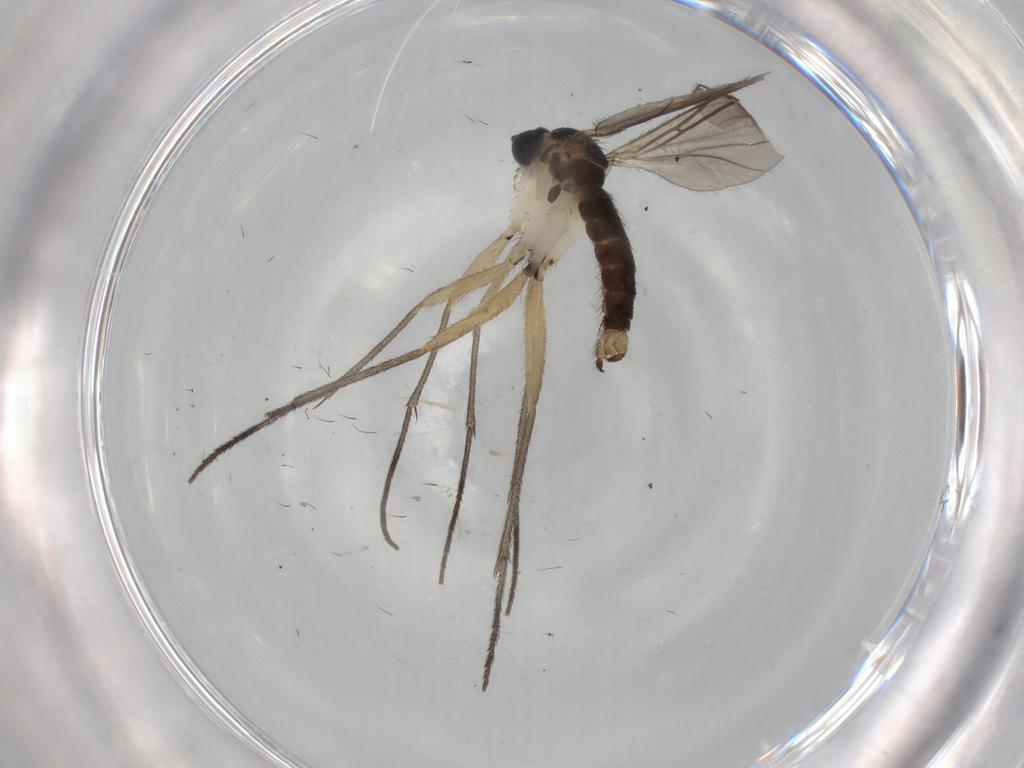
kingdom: Animalia
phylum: Arthropoda
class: Insecta
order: Diptera
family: Sciaridae
